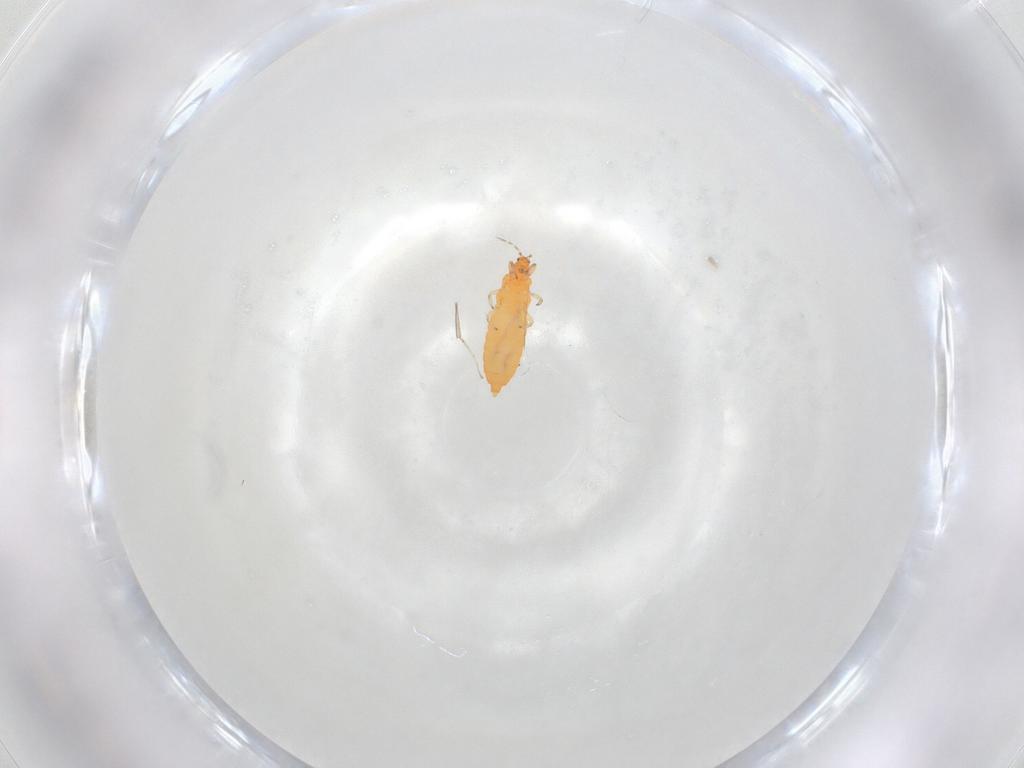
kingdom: Animalia
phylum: Arthropoda
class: Insecta
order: Thysanoptera
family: Aeolothripidae
